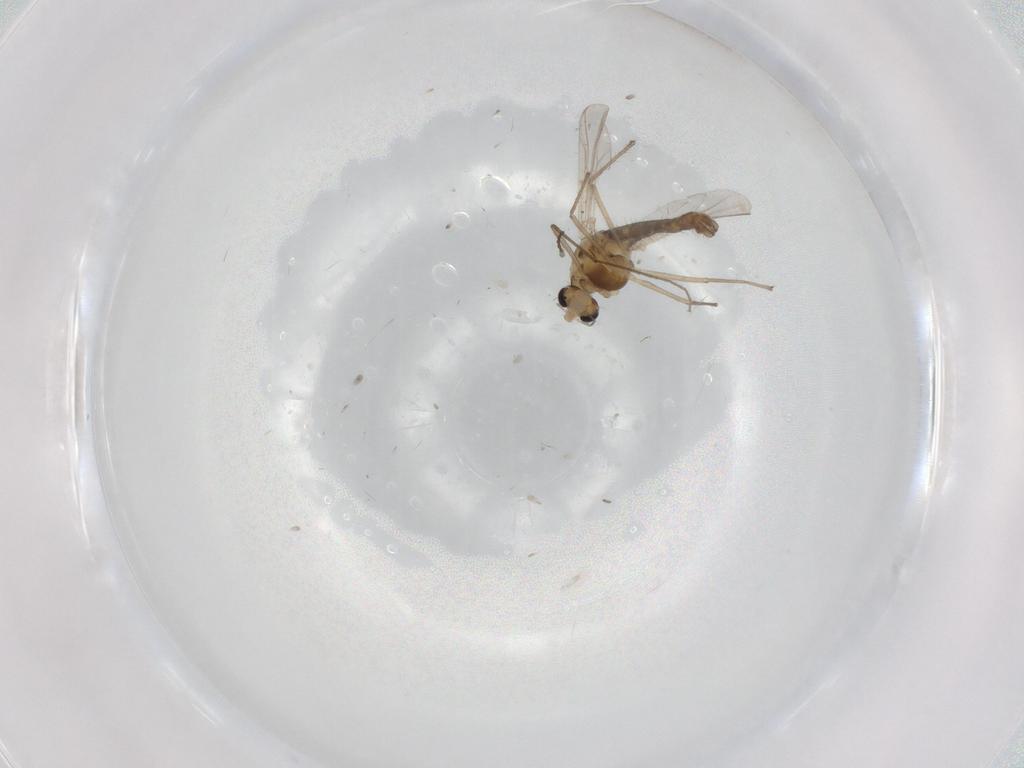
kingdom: Animalia
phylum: Arthropoda
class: Insecta
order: Diptera
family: Chironomidae
